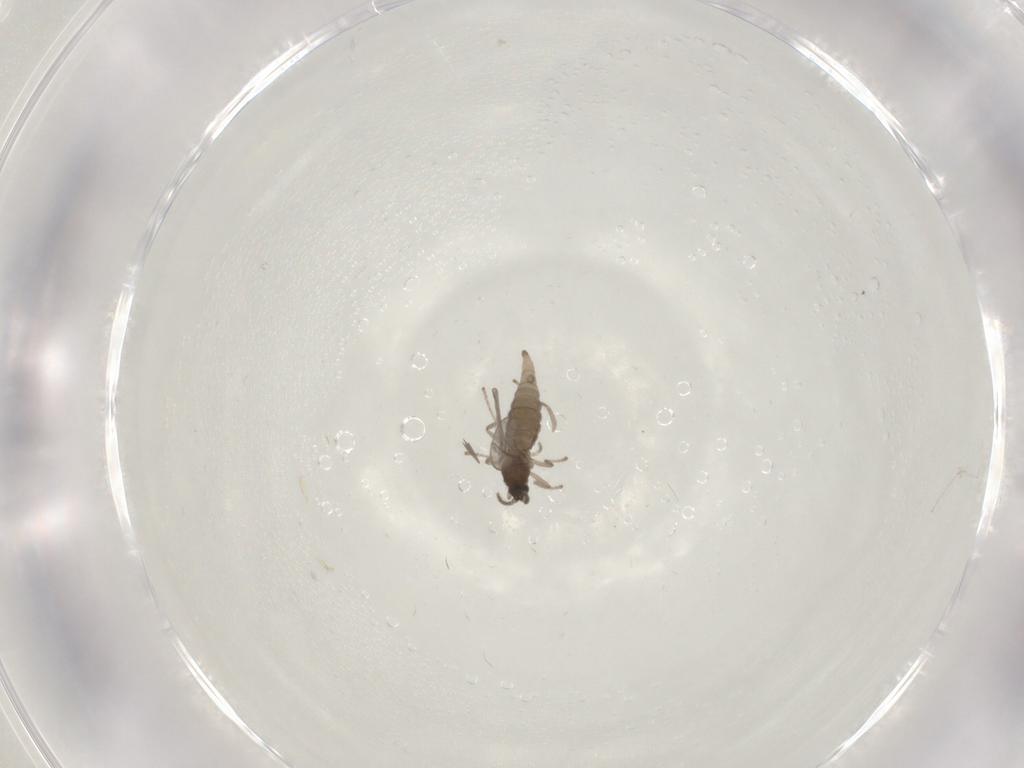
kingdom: Animalia
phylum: Arthropoda
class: Insecta
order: Diptera
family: Cecidomyiidae
